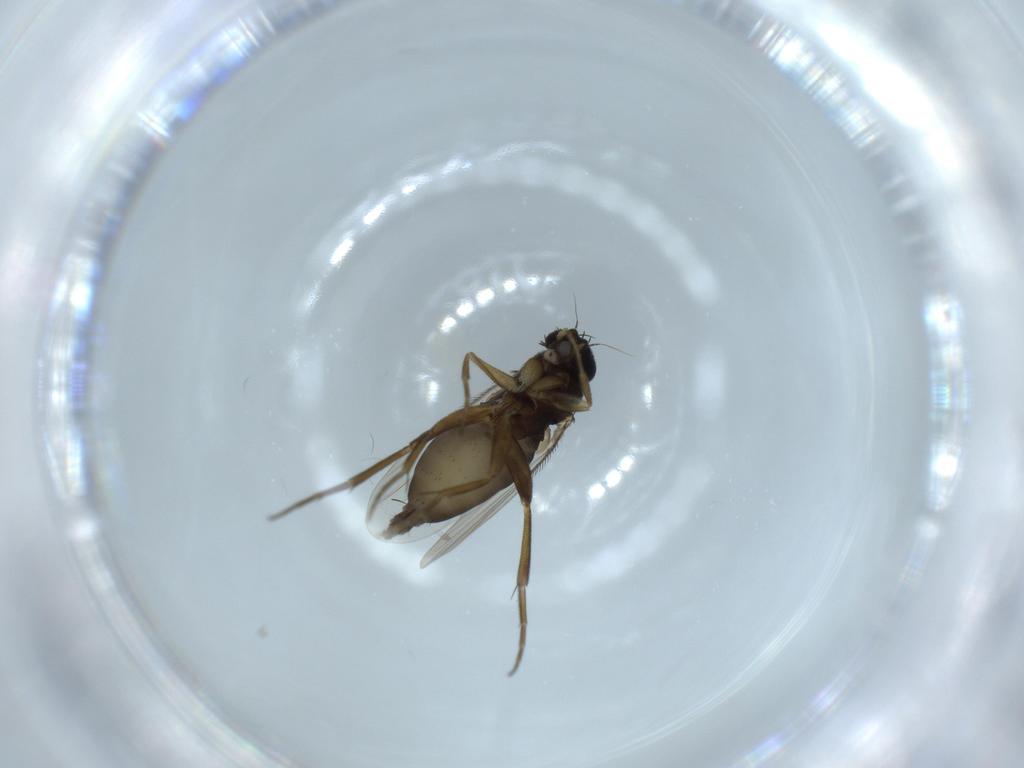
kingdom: Animalia
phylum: Arthropoda
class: Insecta
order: Diptera
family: Phoridae
